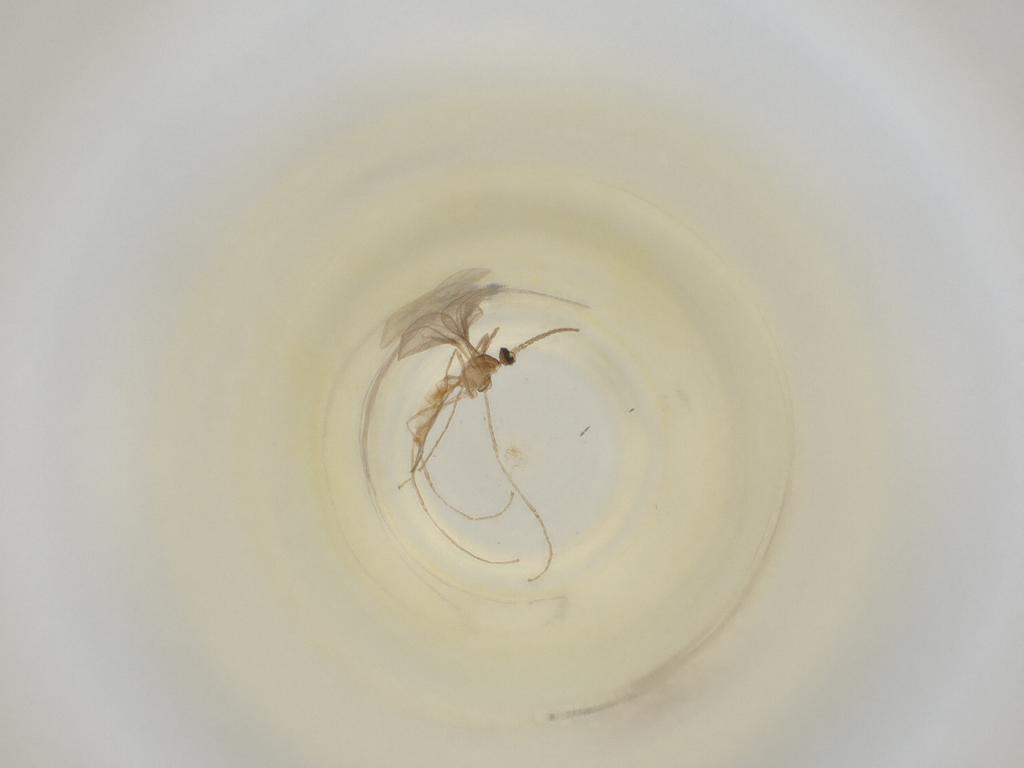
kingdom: Animalia
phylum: Arthropoda
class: Insecta
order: Diptera
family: Cecidomyiidae
